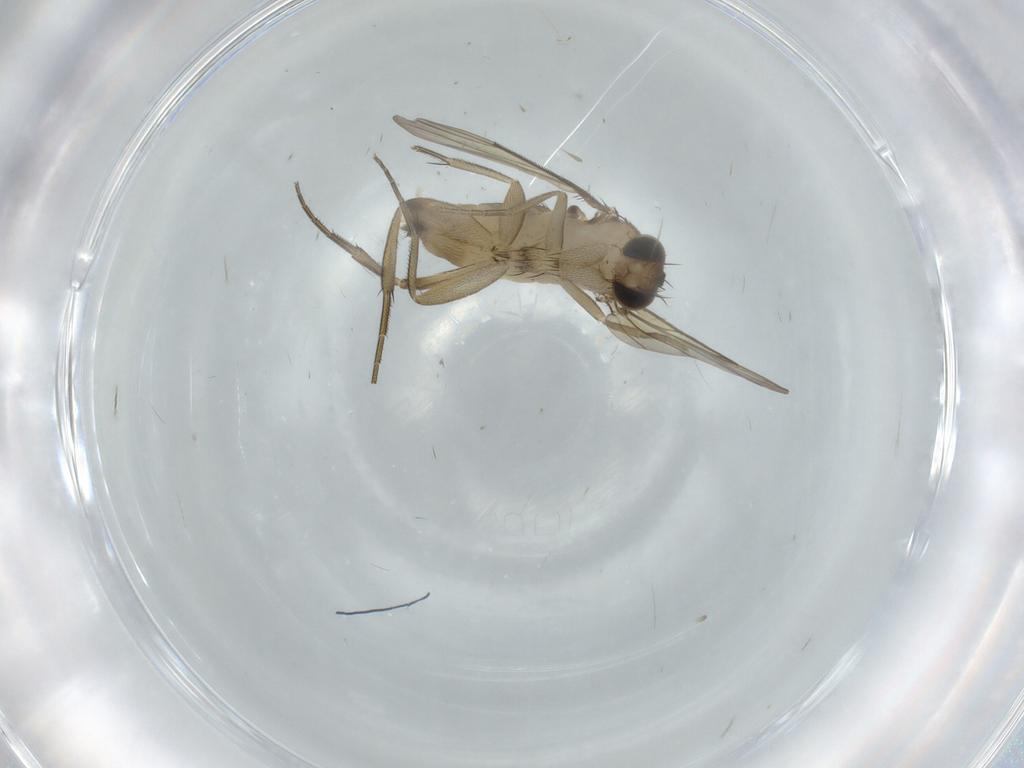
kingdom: Animalia
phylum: Arthropoda
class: Insecta
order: Diptera
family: Phoridae
